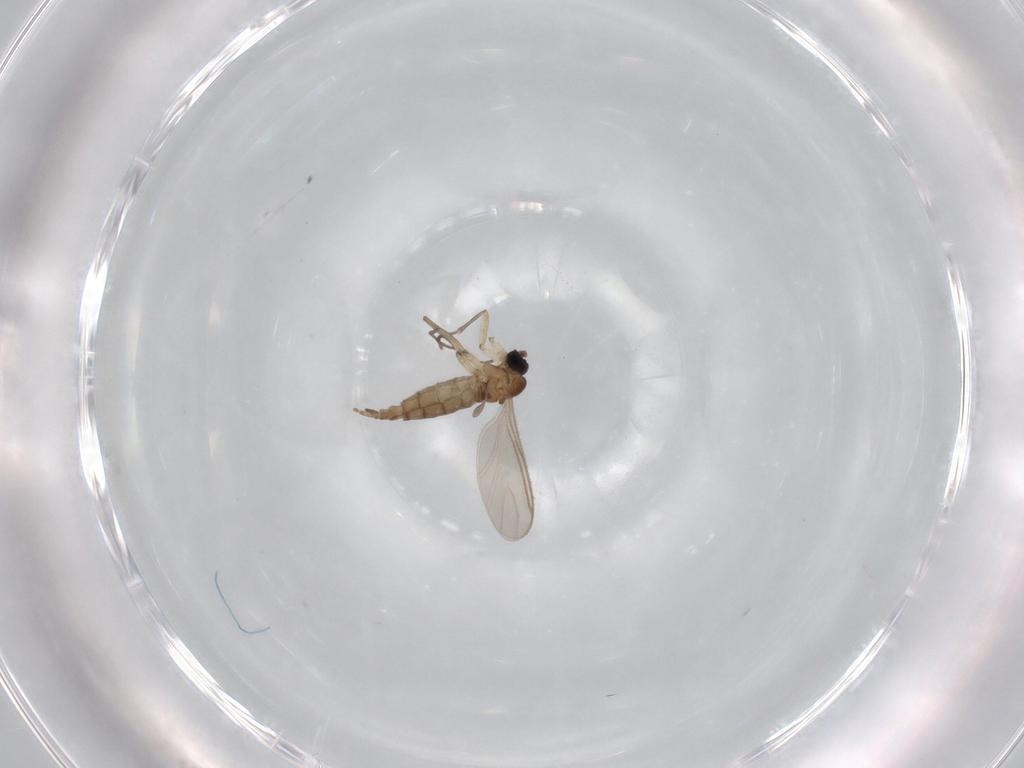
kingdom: Animalia
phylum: Arthropoda
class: Insecta
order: Diptera
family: Sciaridae
